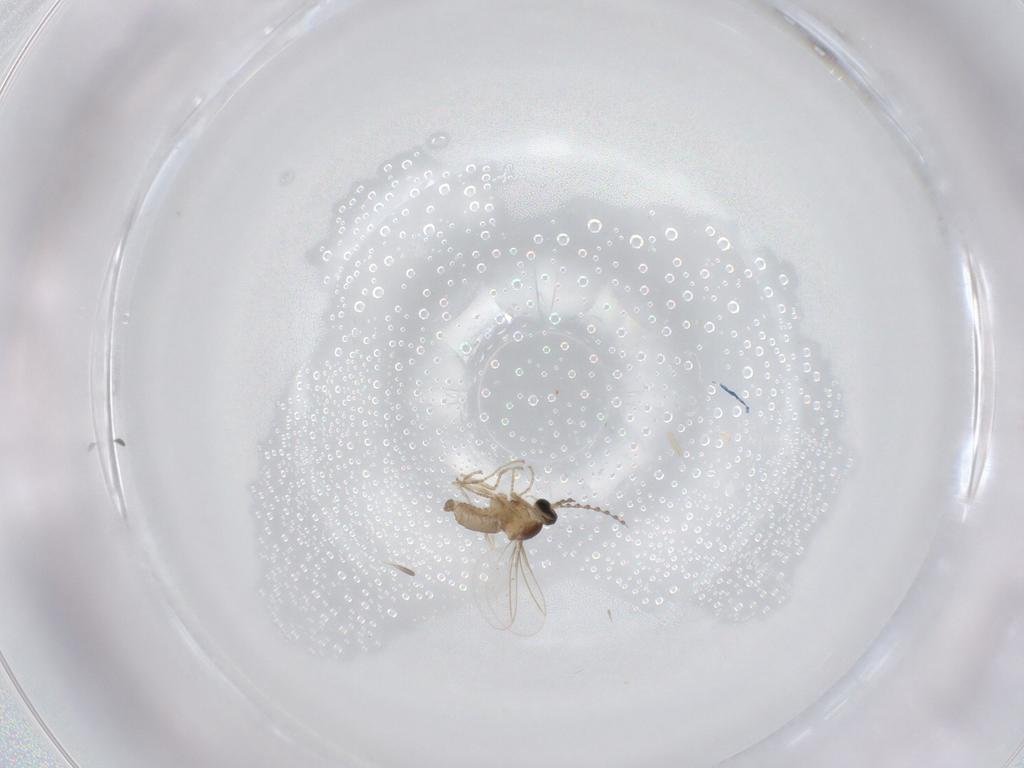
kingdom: Animalia
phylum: Arthropoda
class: Insecta
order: Diptera
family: Cecidomyiidae
